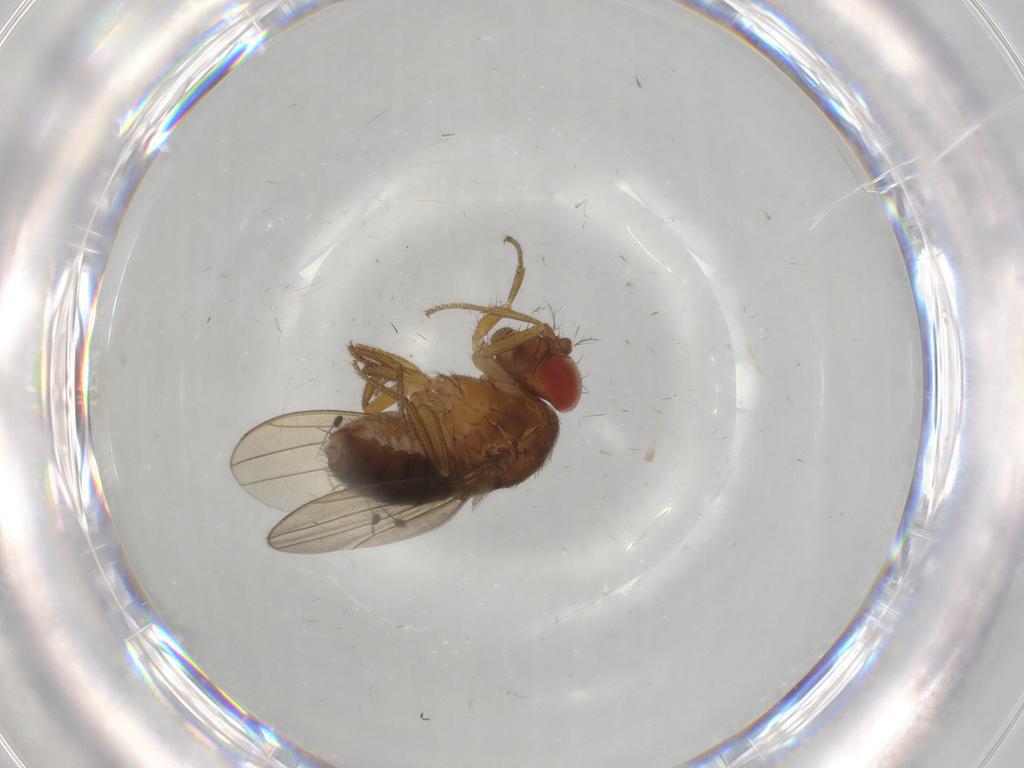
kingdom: Animalia
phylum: Arthropoda
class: Insecta
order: Diptera
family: Drosophilidae
